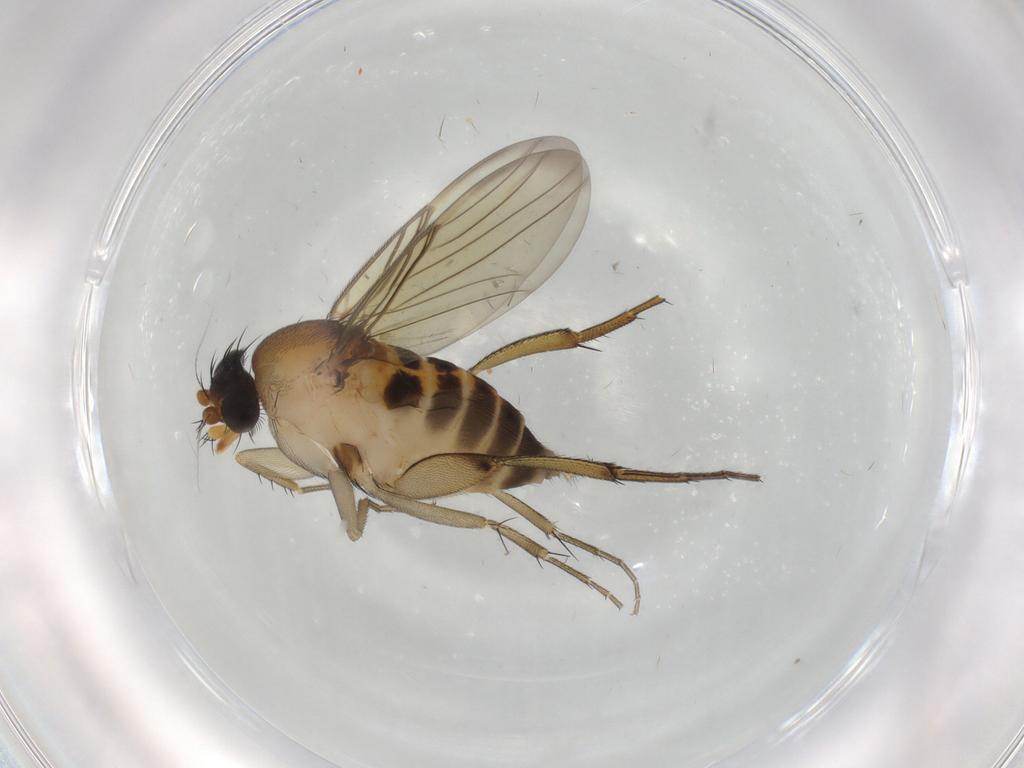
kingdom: Animalia
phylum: Arthropoda
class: Insecta
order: Diptera
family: Phoridae
